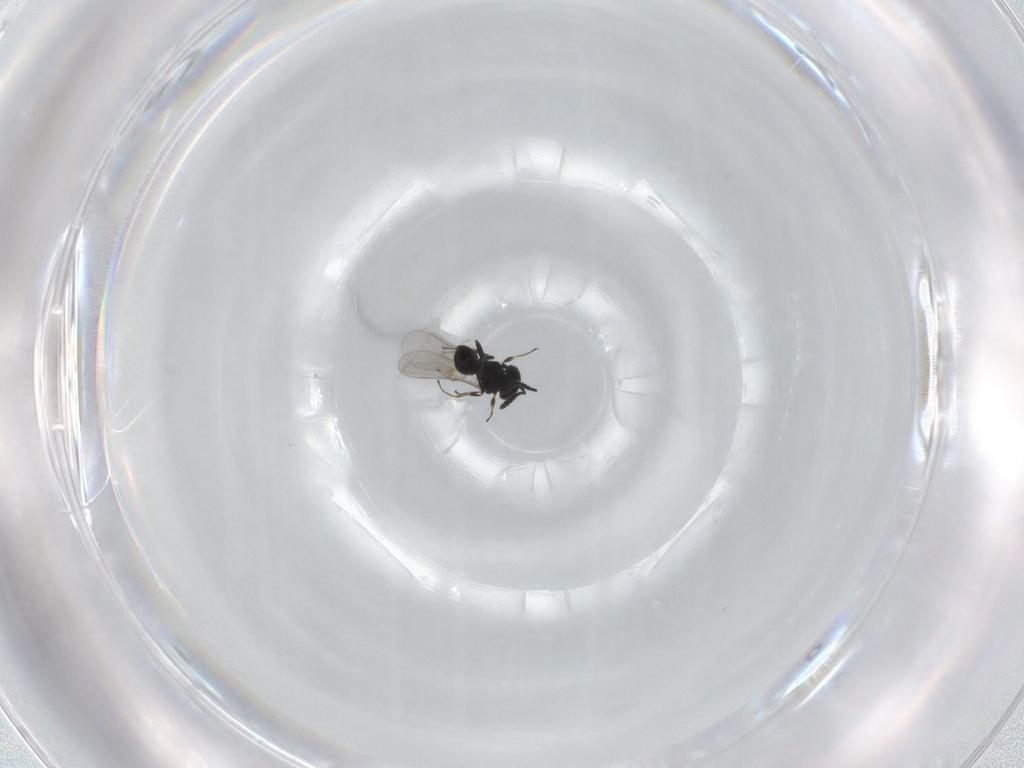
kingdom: Animalia
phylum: Arthropoda
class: Insecta
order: Hymenoptera
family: Scelionidae
